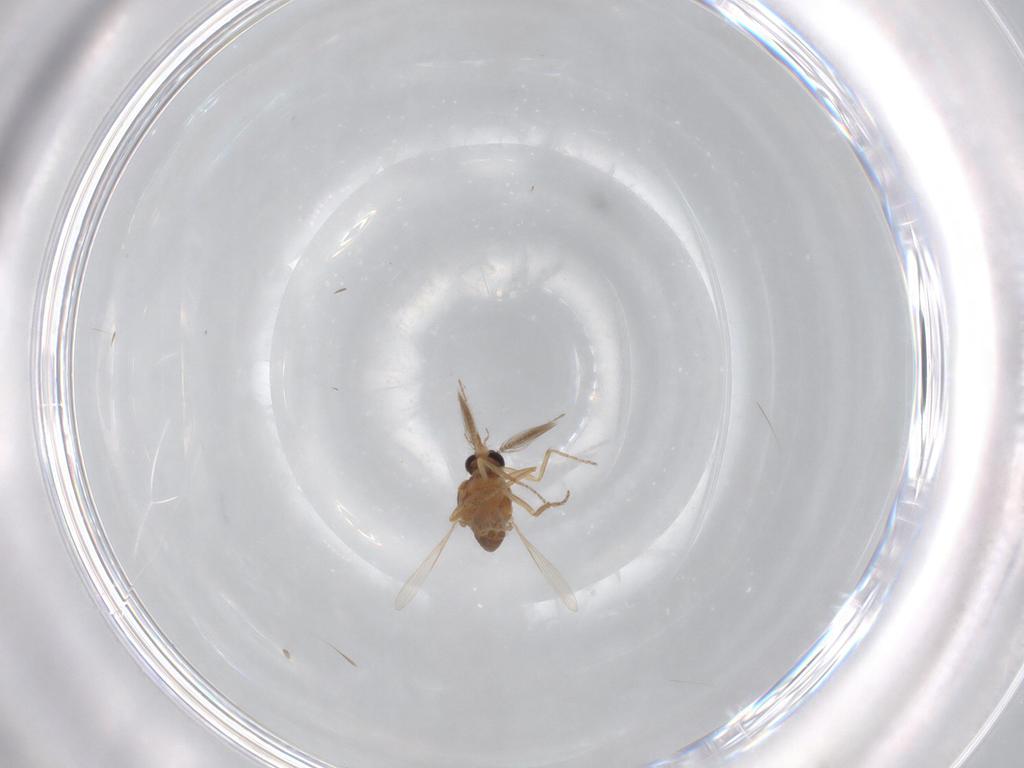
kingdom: Animalia
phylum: Arthropoda
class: Insecta
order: Diptera
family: Ceratopogonidae
